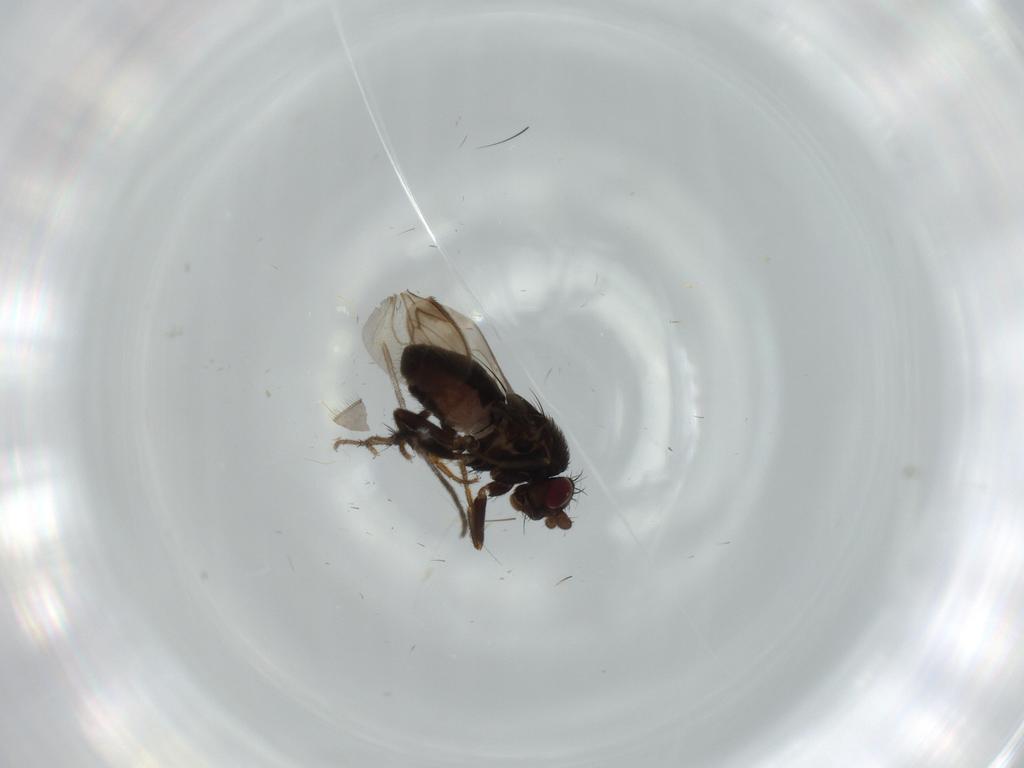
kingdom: Animalia
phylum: Arthropoda
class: Insecta
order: Diptera
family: Sphaeroceridae
